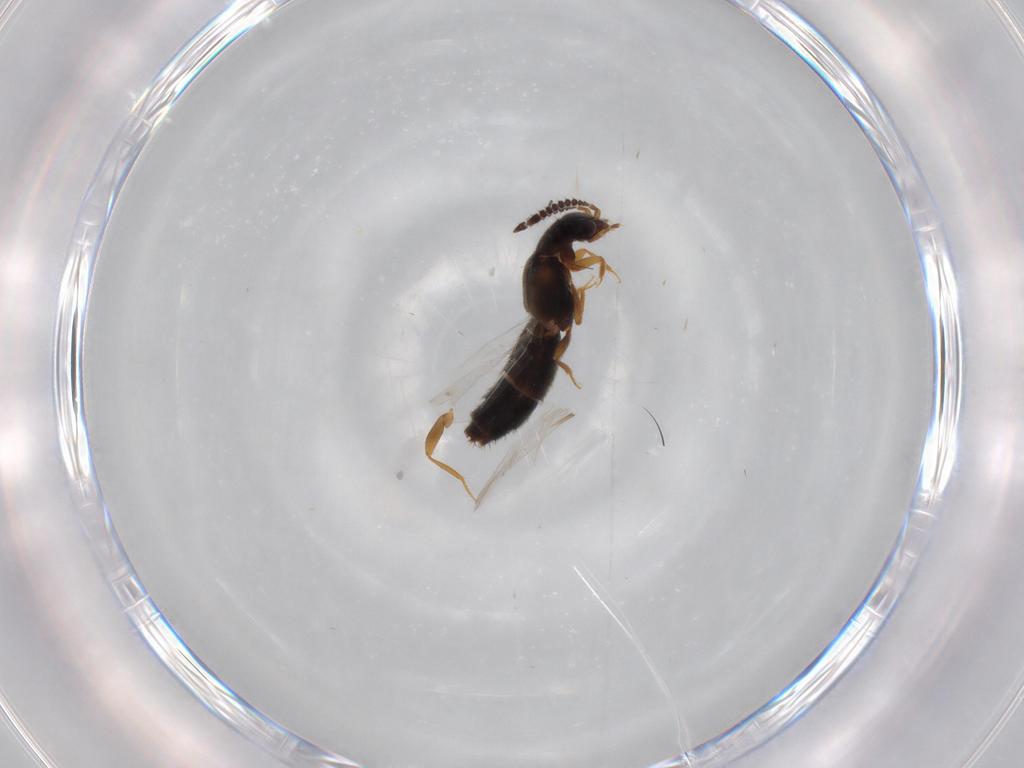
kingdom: Animalia
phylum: Arthropoda
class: Insecta
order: Coleoptera
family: Staphylinidae
